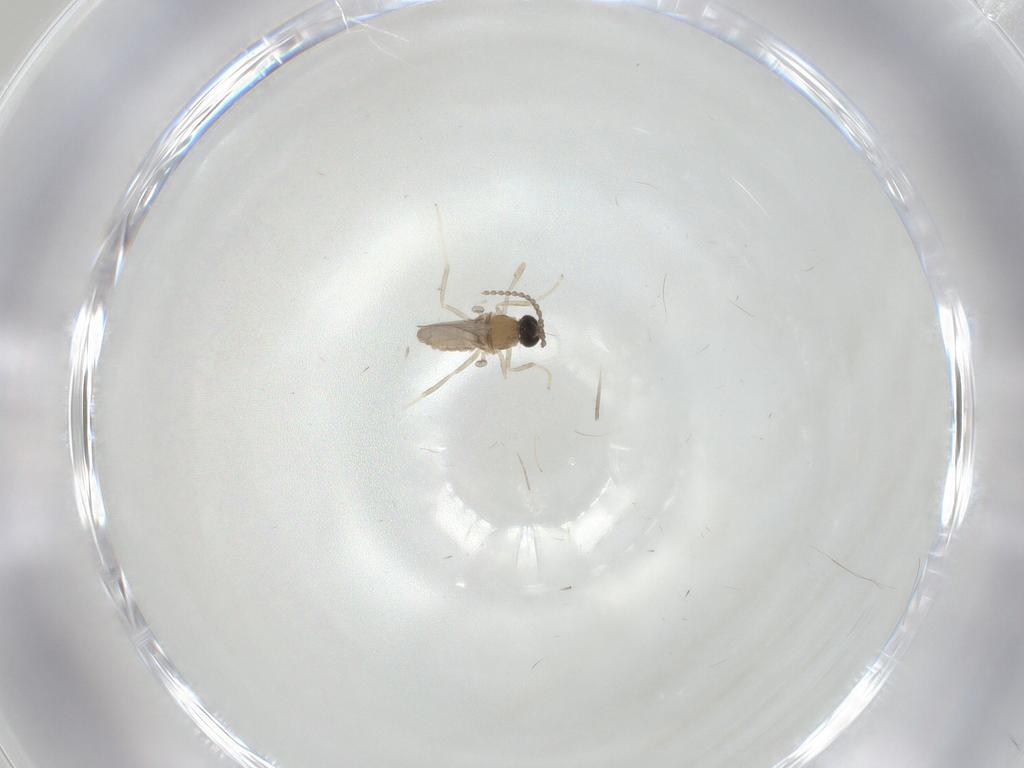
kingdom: Animalia
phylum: Arthropoda
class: Insecta
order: Diptera
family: Cecidomyiidae
